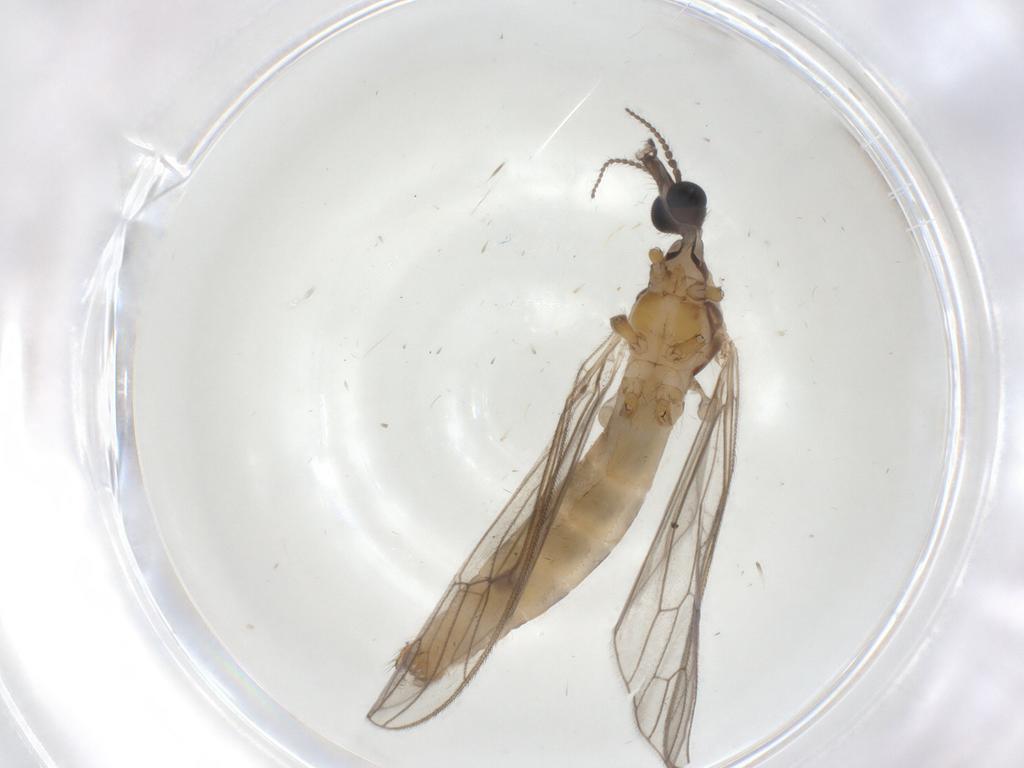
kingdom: Animalia
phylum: Arthropoda
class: Insecta
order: Diptera
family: Limoniidae
